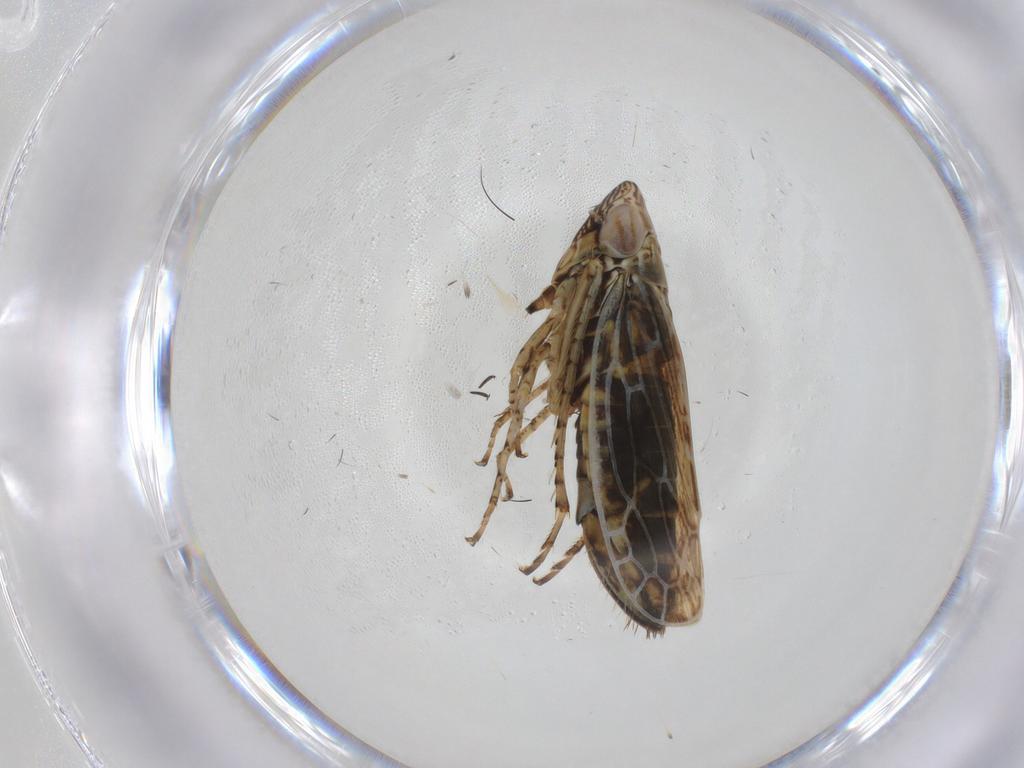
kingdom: Animalia
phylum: Arthropoda
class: Insecta
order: Hemiptera
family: Cicadellidae
